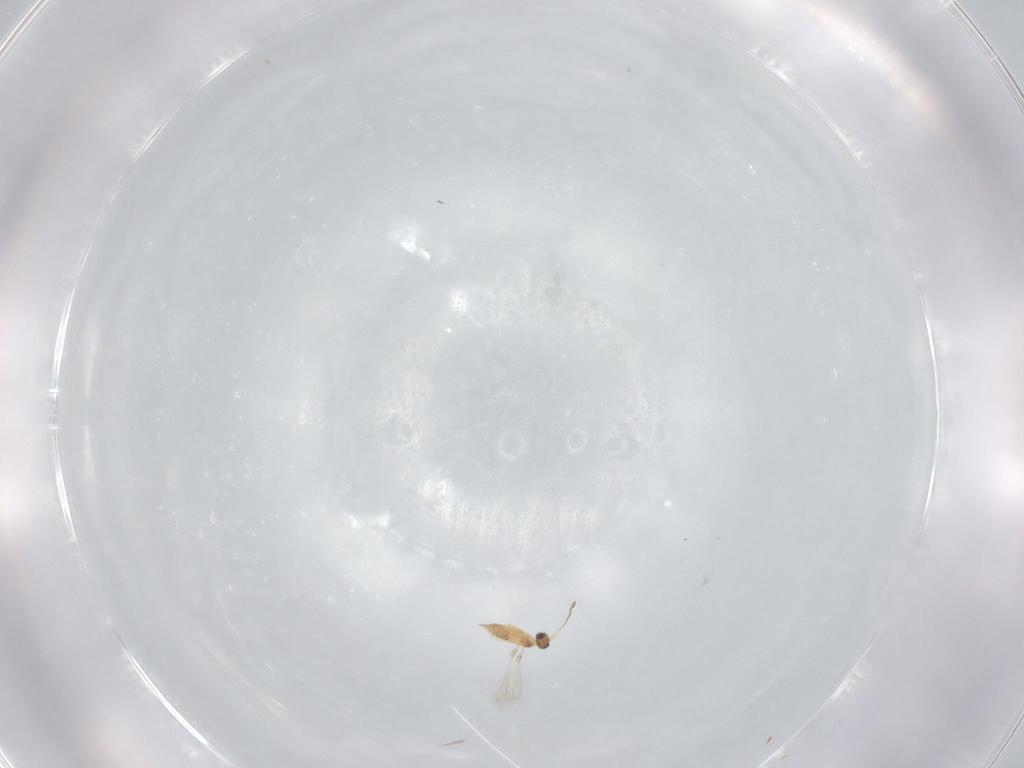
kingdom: Animalia
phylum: Arthropoda
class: Insecta
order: Hymenoptera
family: Mymaridae
